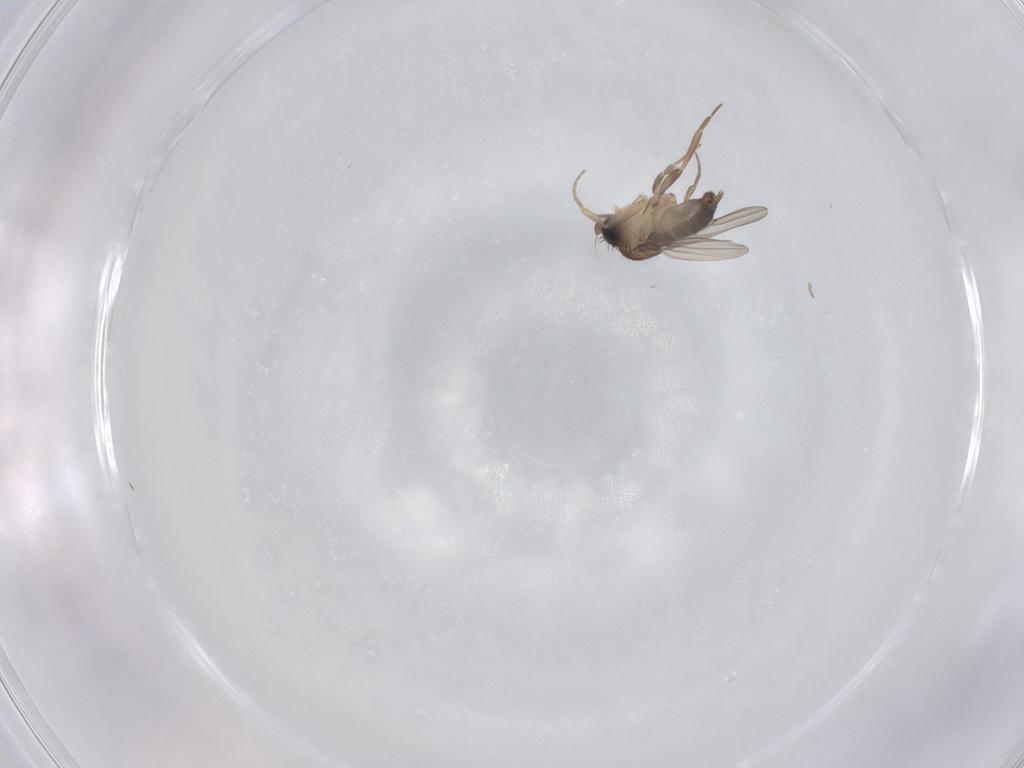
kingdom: Animalia
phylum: Arthropoda
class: Insecta
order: Diptera
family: Phoridae
